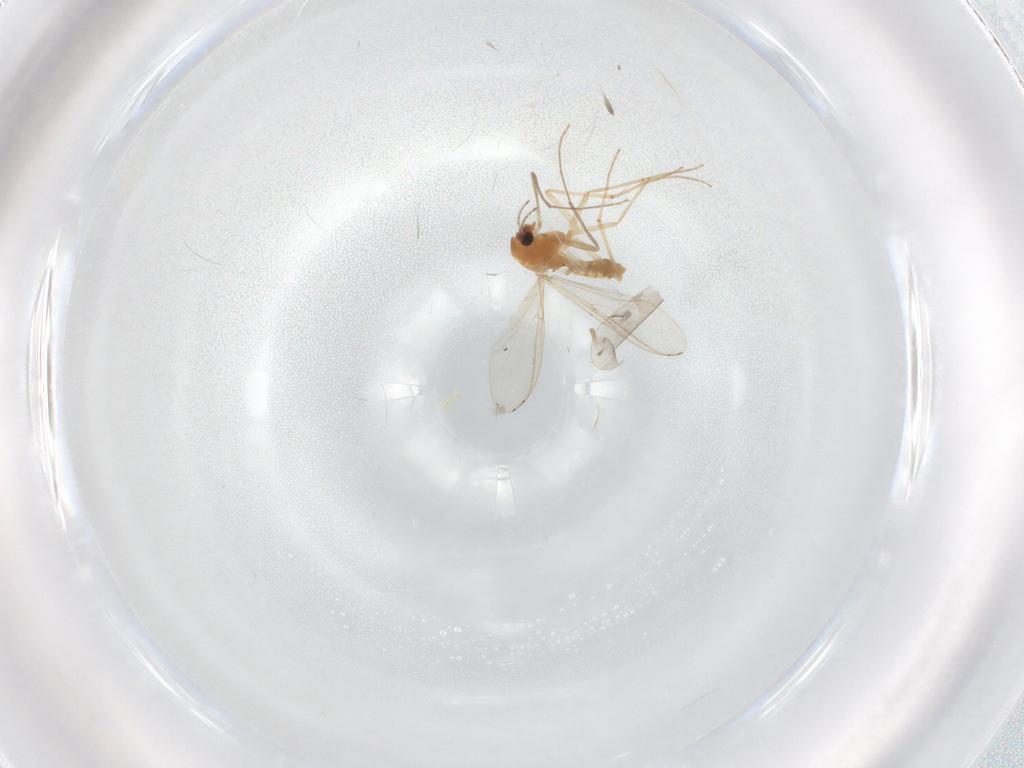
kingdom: Animalia
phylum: Arthropoda
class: Insecta
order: Diptera
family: Chironomidae
